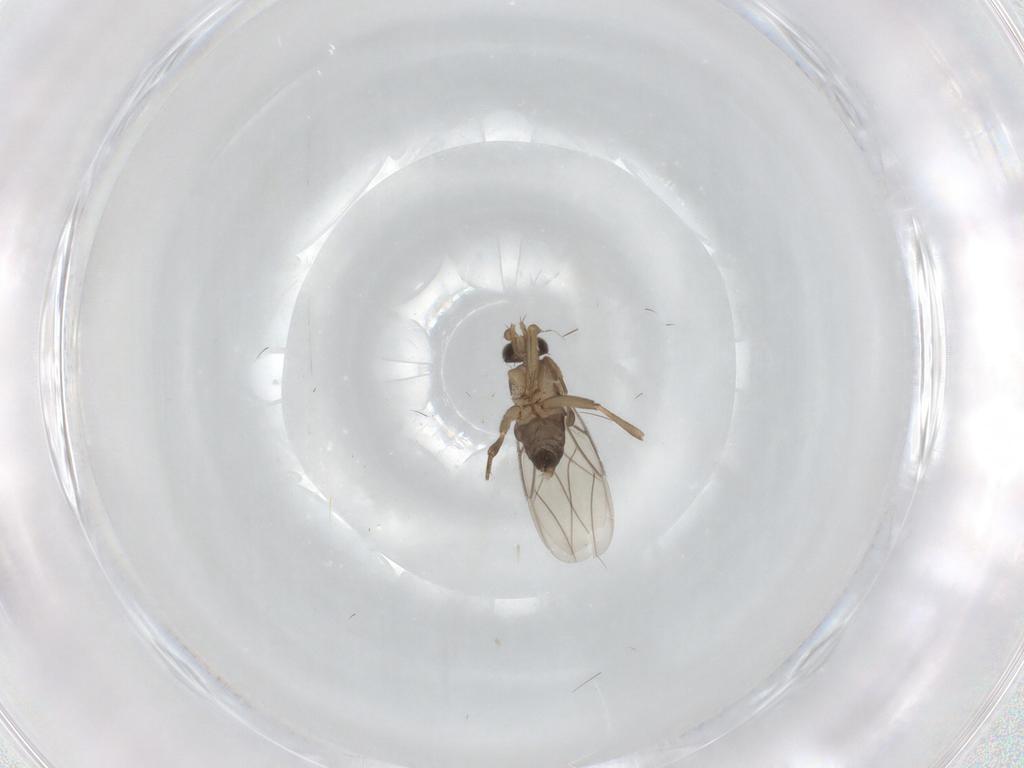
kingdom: Animalia
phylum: Arthropoda
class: Insecta
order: Diptera
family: Phoridae
